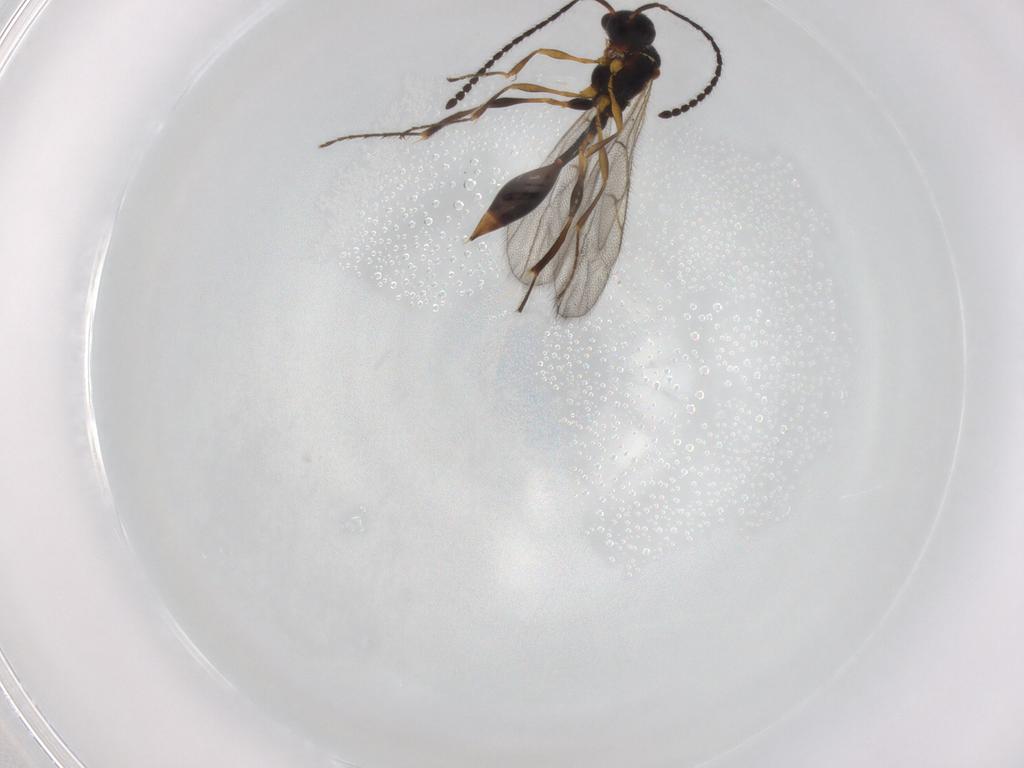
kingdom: Animalia
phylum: Arthropoda
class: Insecta
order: Hymenoptera
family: Diapriidae
